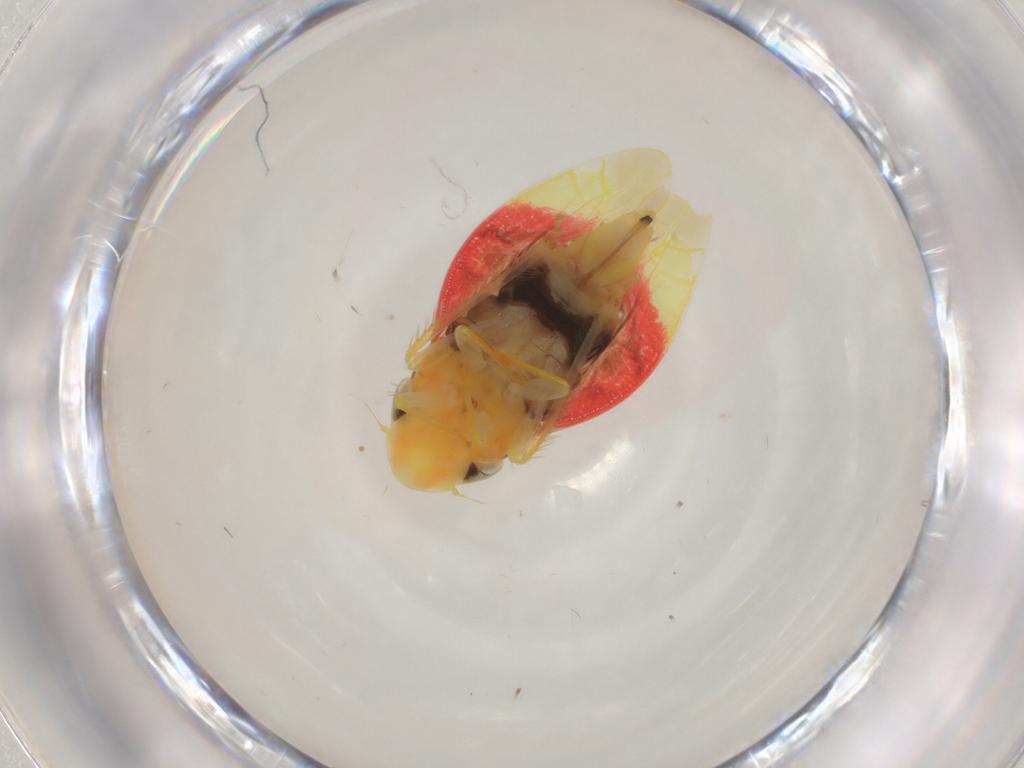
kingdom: Animalia
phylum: Arthropoda
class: Insecta
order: Hemiptera
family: Cicadellidae
